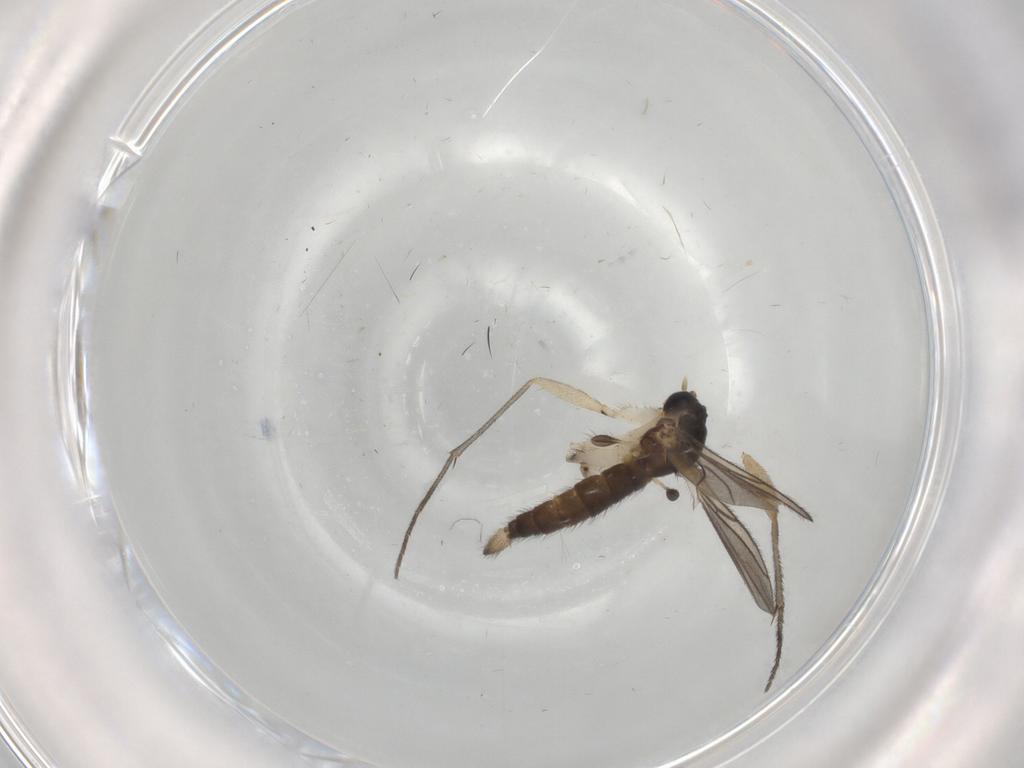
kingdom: Animalia
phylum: Arthropoda
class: Insecta
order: Diptera
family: Sciaridae
